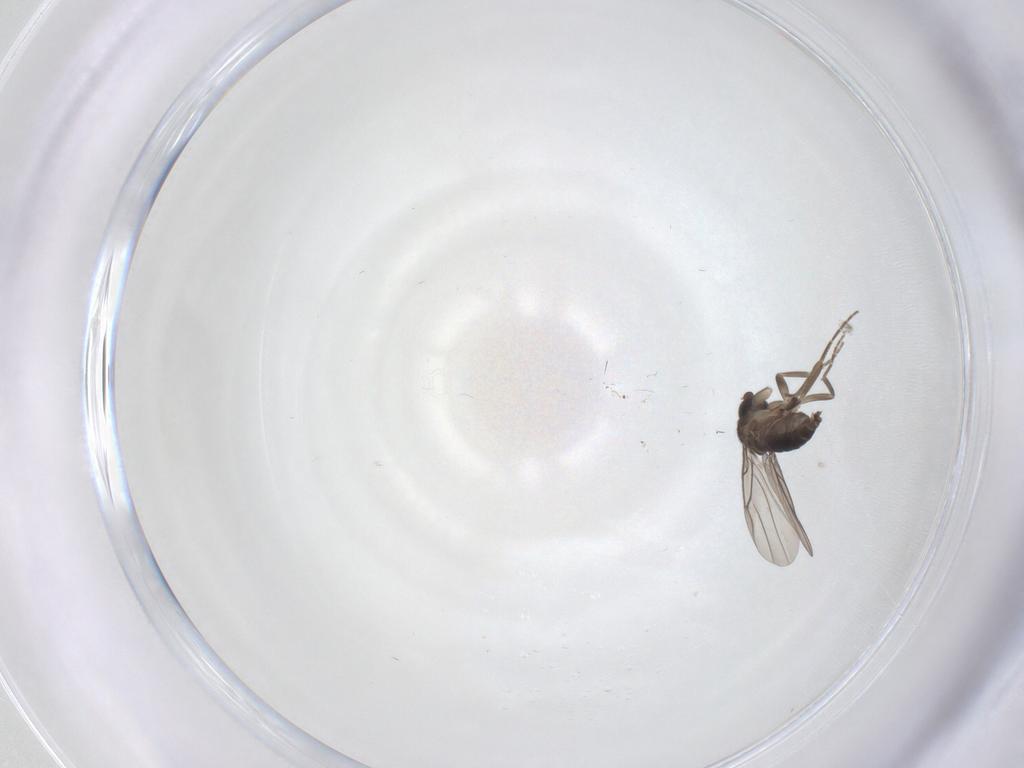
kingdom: Animalia
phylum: Arthropoda
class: Insecta
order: Diptera
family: Phoridae
